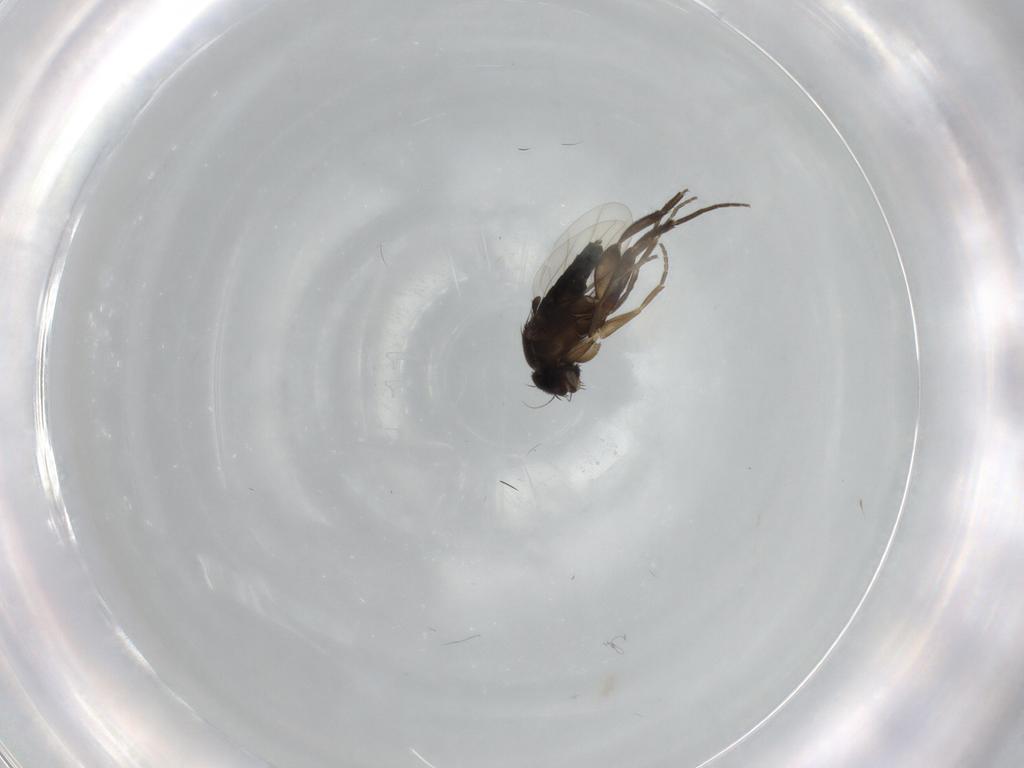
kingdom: Animalia
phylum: Arthropoda
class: Insecta
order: Diptera
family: Phoridae
